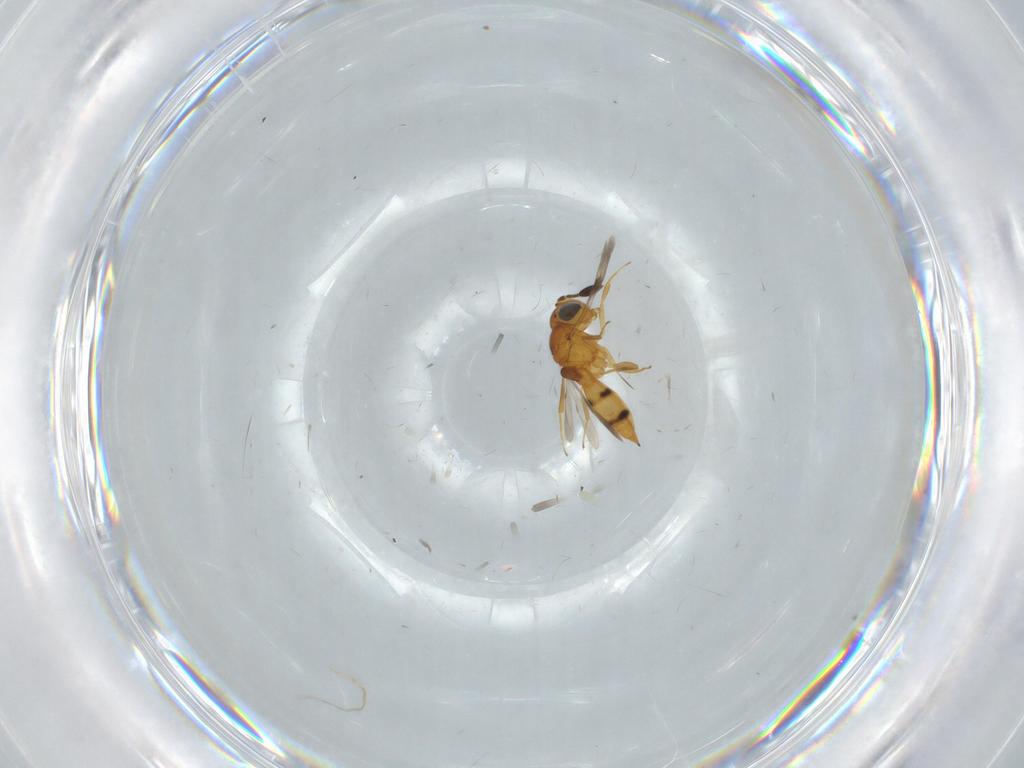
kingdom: Animalia
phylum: Arthropoda
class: Insecta
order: Hymenoptera
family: Scelionidae
